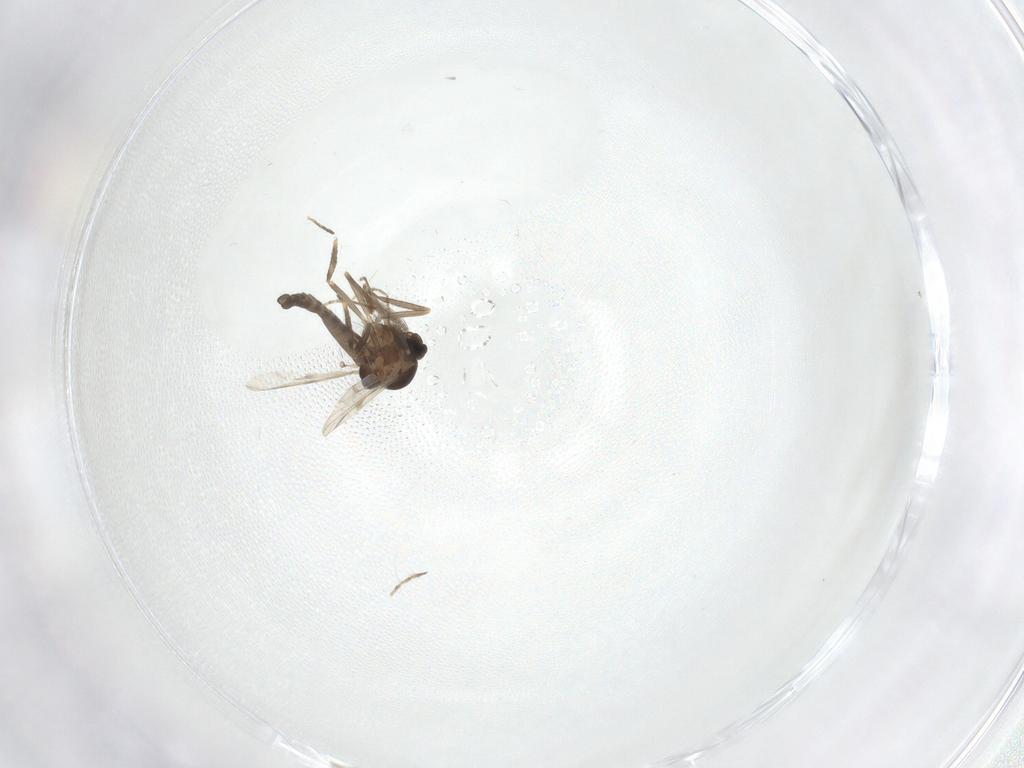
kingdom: Animalia
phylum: Arthropoda
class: Insecta
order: Diptera
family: Ceratopogonidae
